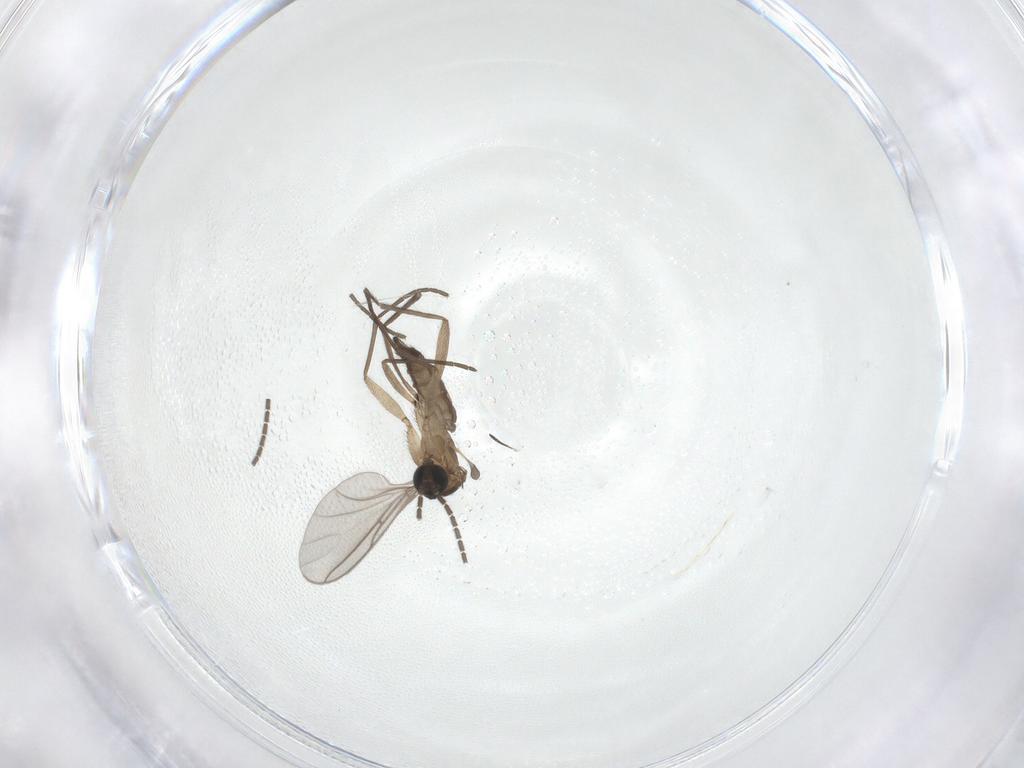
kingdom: Animalia
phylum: Arthropoda
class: Insecta
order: Diptera
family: Cecidomyiidae
